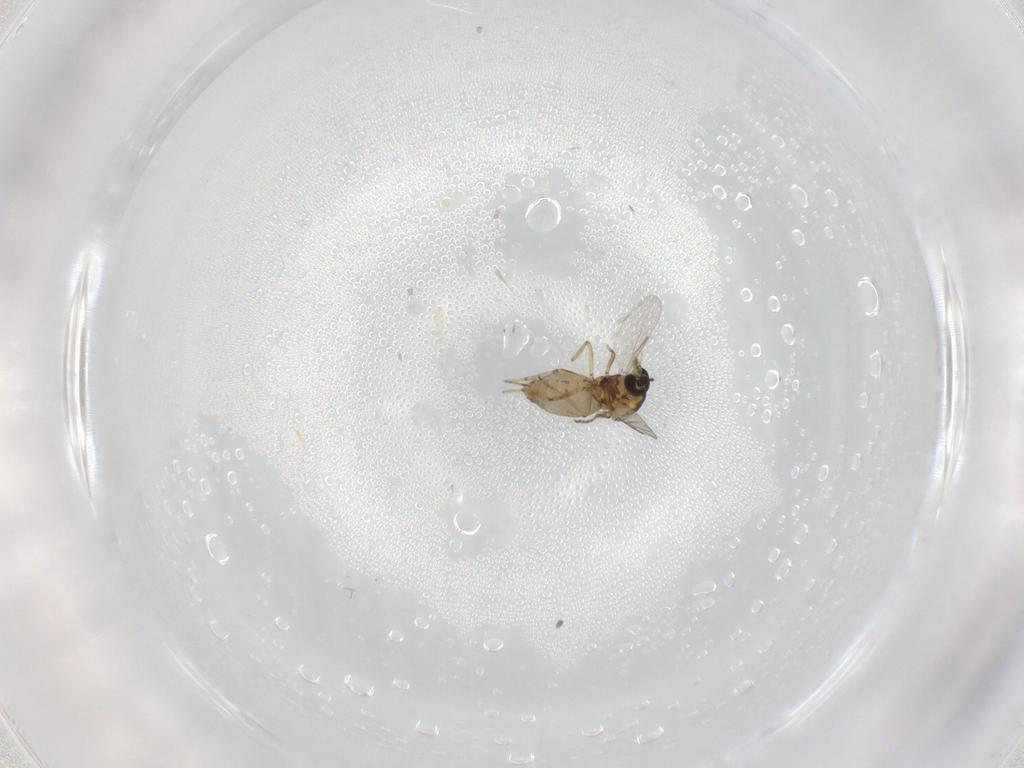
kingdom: Animalia
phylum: Arthropoda
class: Insecta
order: Diptera
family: Ceratopogonidae
